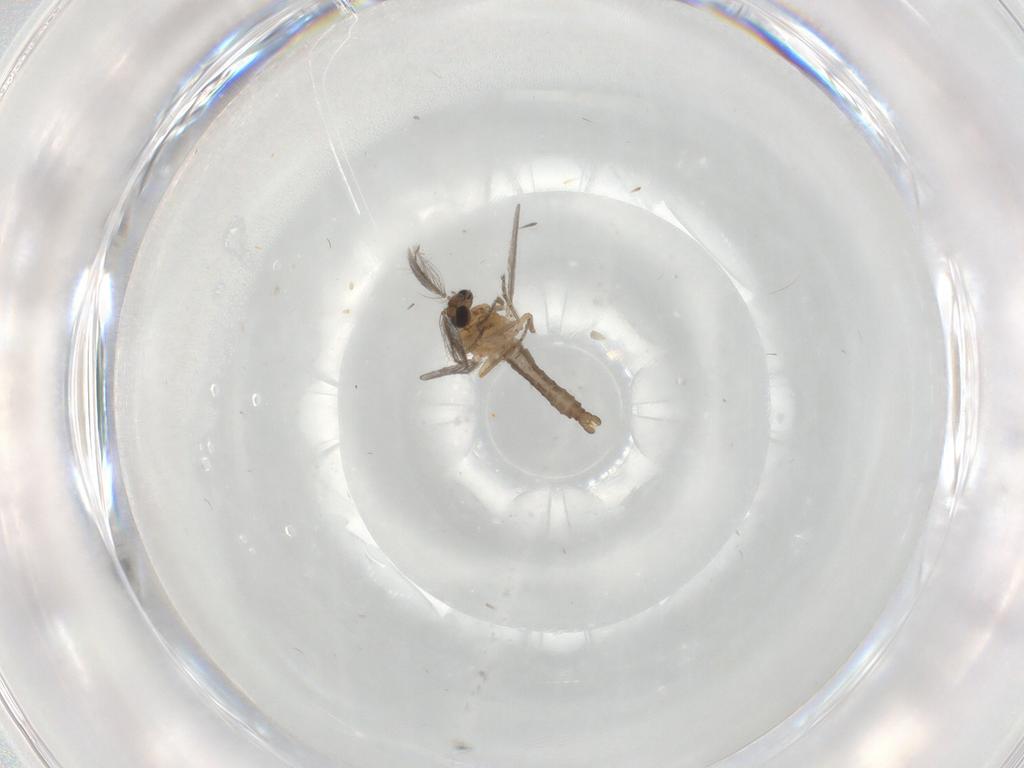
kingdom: Animalia
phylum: Arthropoda
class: Insecta
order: Diptera
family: Ceratopogonidae
